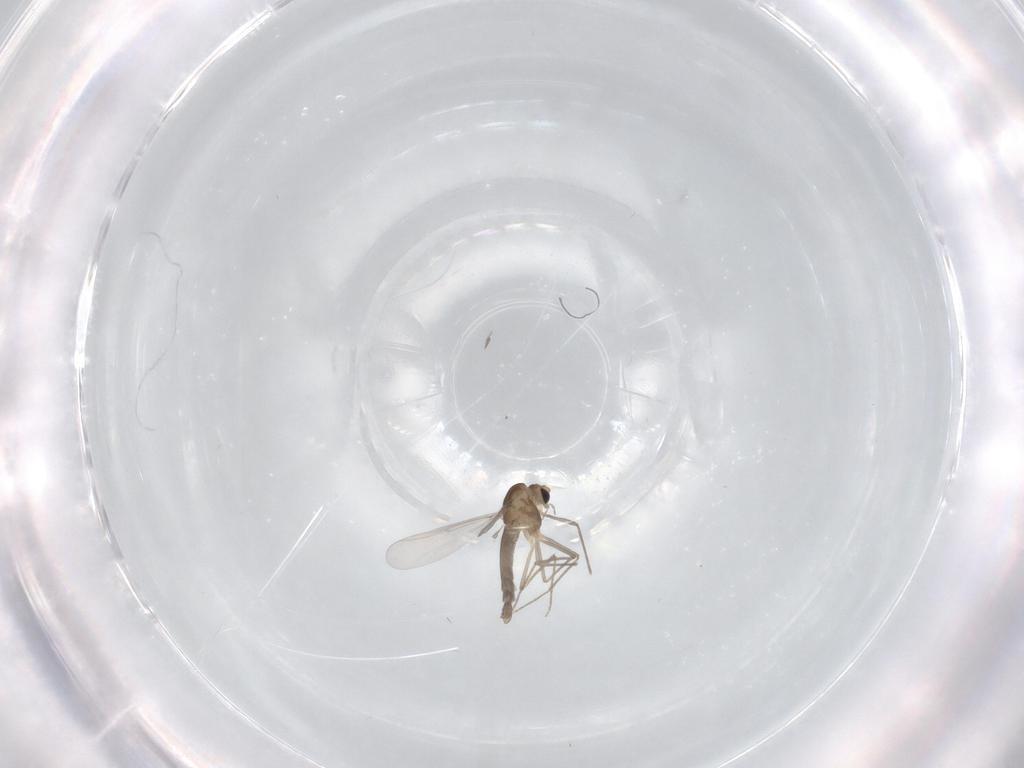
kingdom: Animalia
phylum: Arthropoda
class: Insecta
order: Diptera
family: Chironomidae
